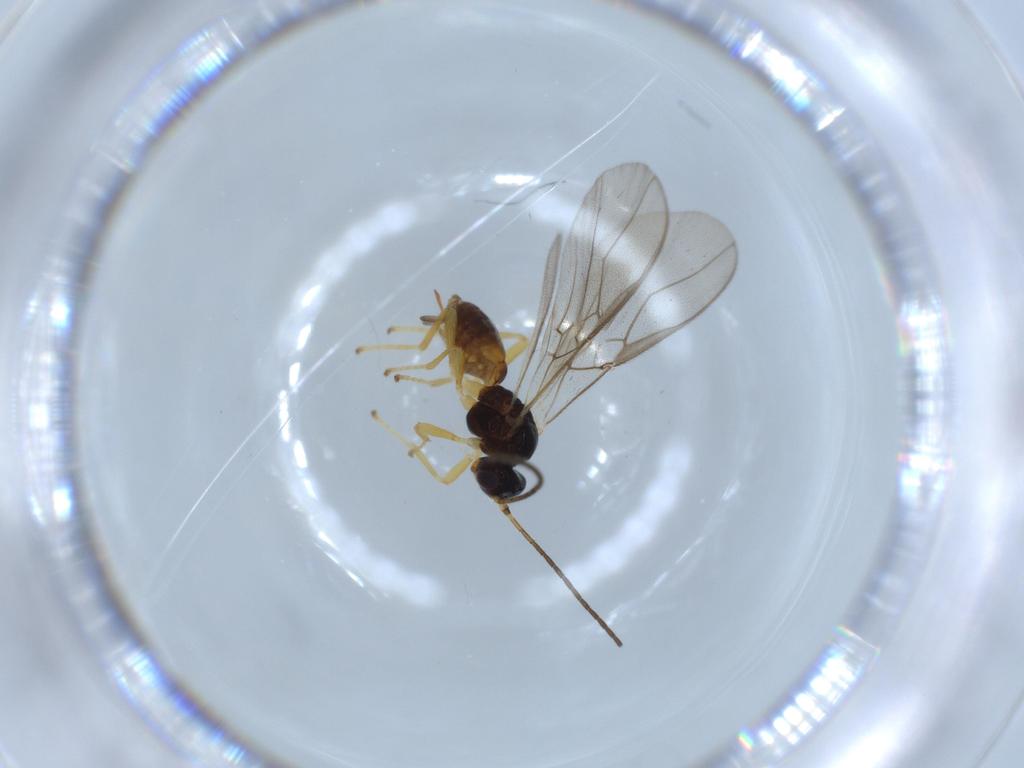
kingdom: Animalia
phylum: Arthropoda
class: Insecta
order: Hymenoptera
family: Braconidae
